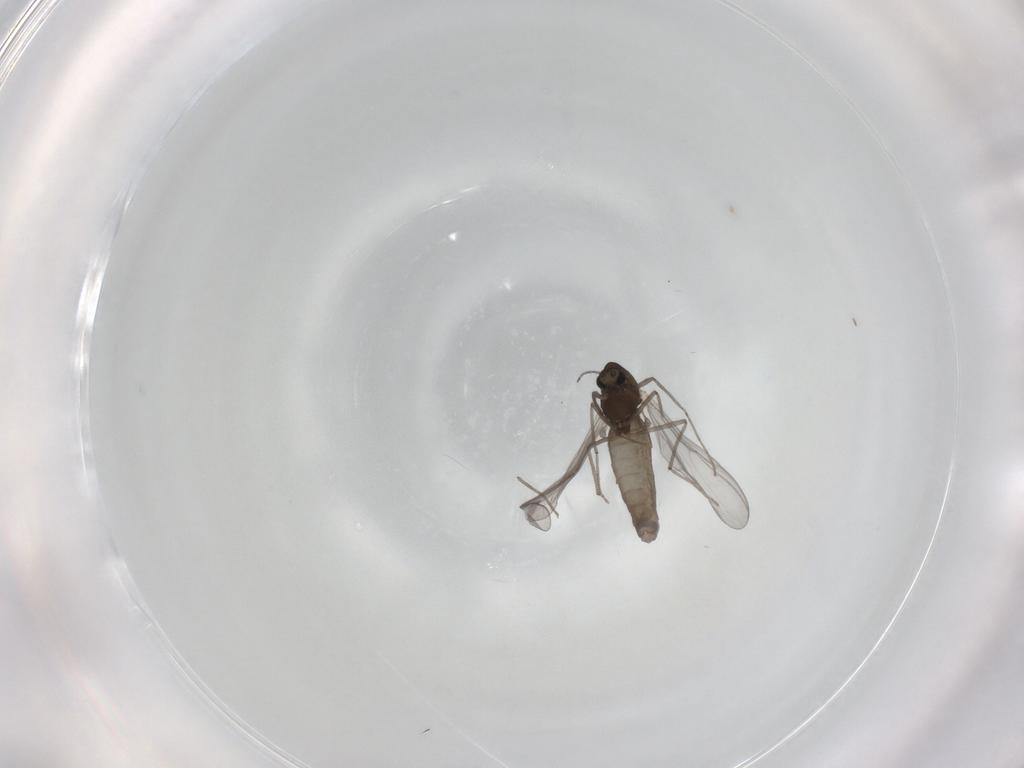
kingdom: Animalia
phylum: Arthropoda
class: Insecta
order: Diptera
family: Chironomidae
